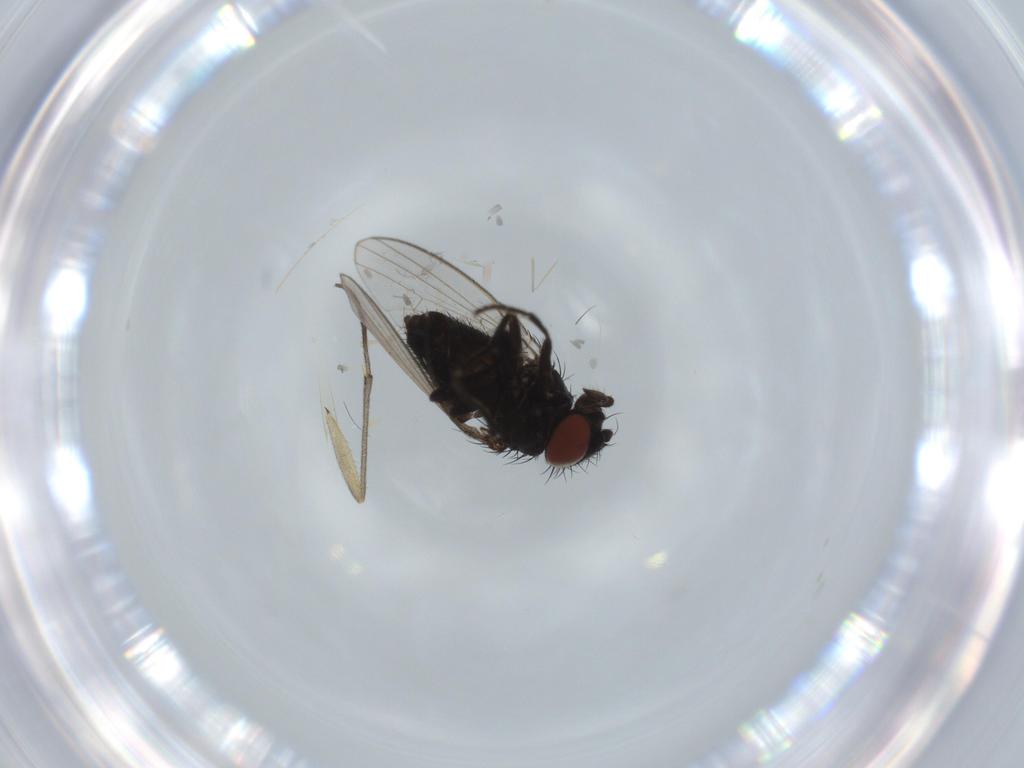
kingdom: Animalia
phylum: Arthropoda
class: Insecta
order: Diptera
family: Sciaridae
